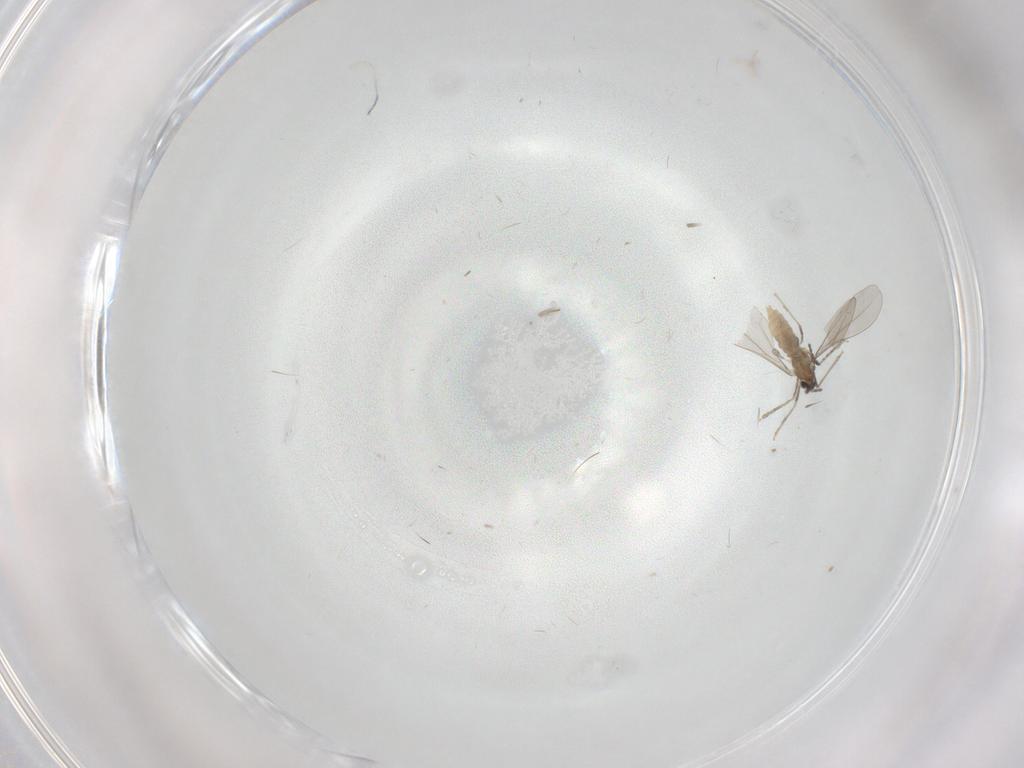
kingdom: Animalia
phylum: Arthropoda
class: Insecta
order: Diptera
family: Cecidomyiidae
